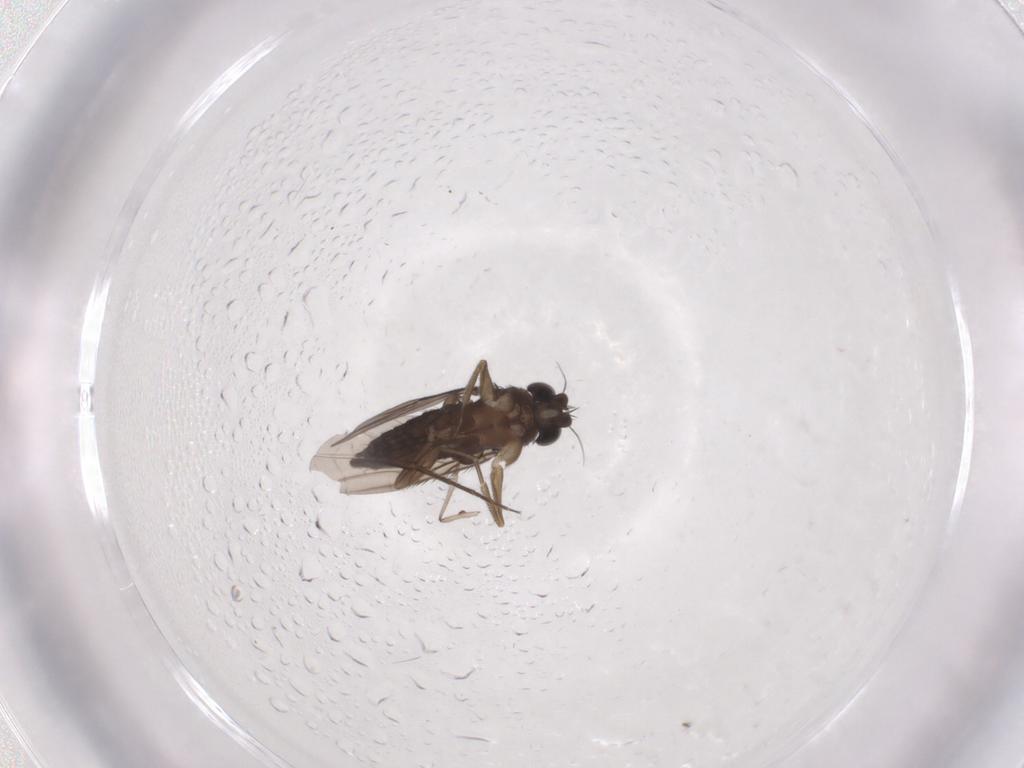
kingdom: Animalia
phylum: Arthropoda
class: Insecta
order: Diptera
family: Phoridae
